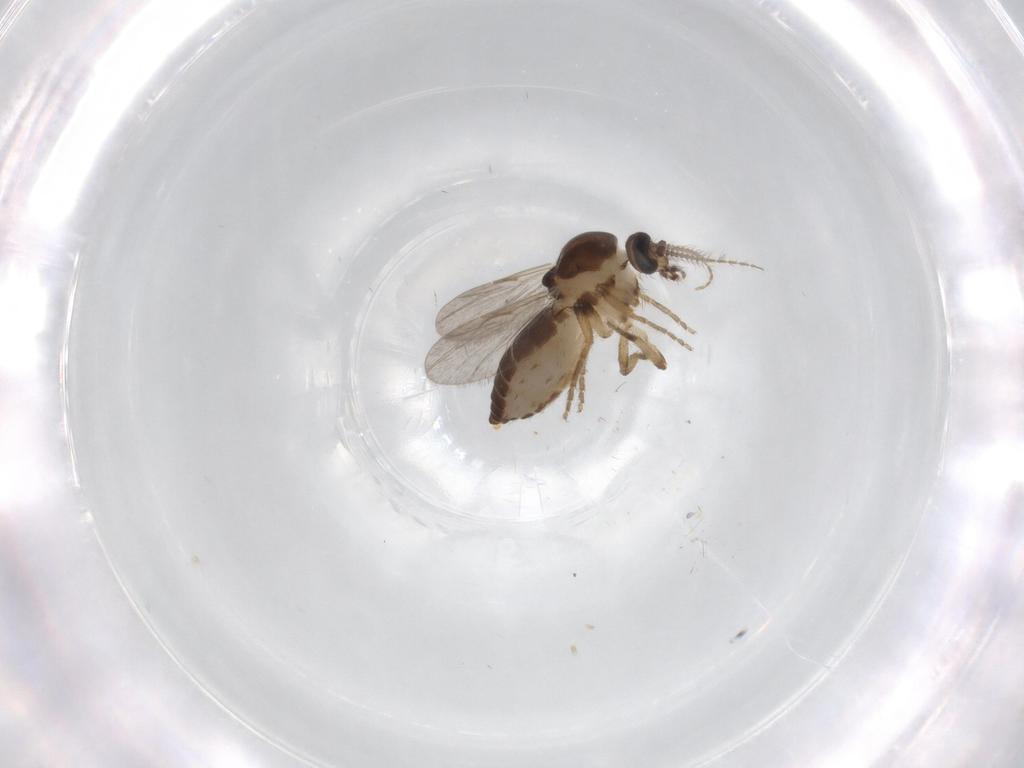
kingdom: Animalia
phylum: Arthropoda
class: Insecta
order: Diptera
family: Ceratopogonidae
